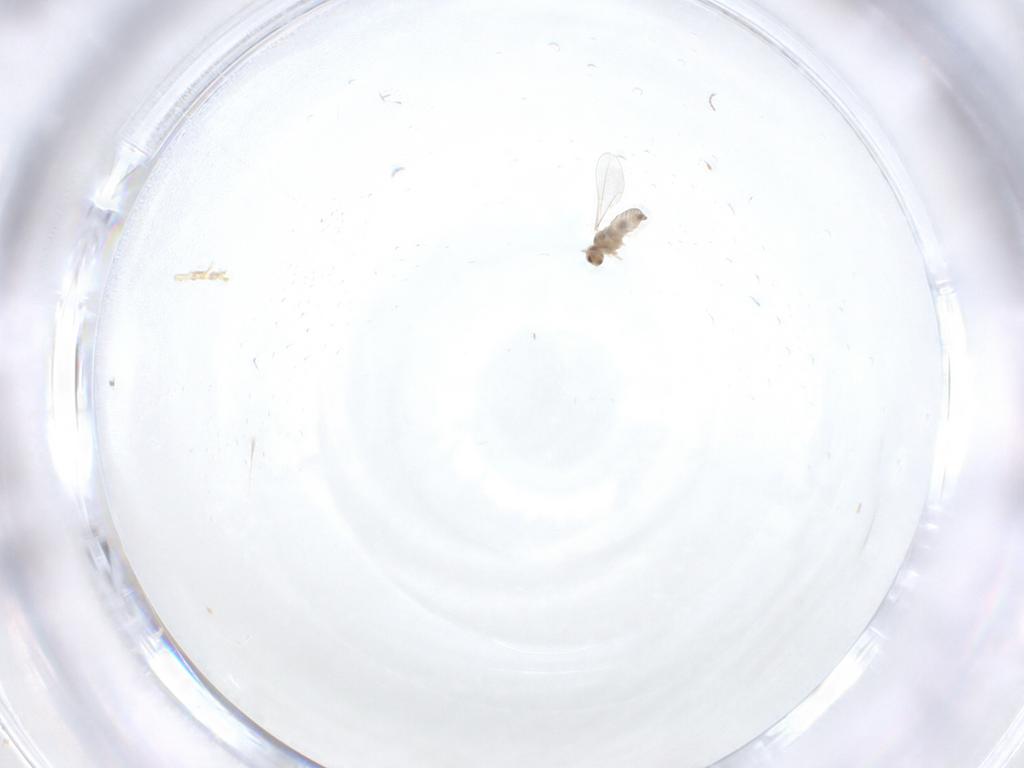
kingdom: Animalia
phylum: Arthropoda
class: Insecta
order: Diptera
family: Cecidomyiidae
